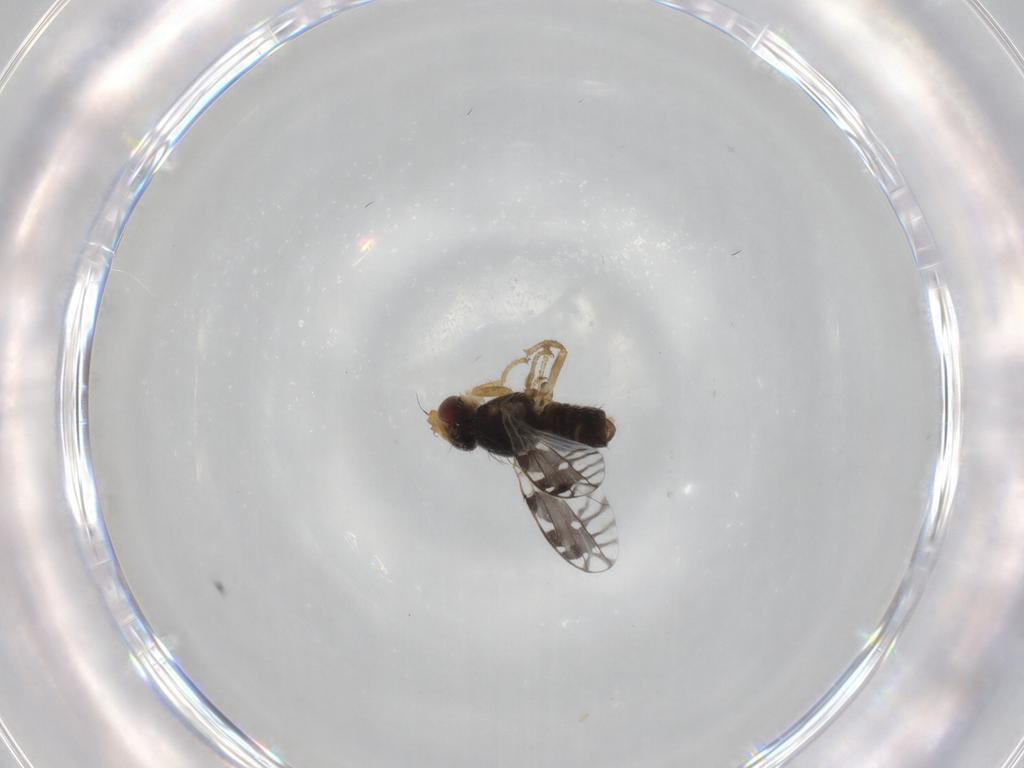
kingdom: Animalia
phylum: Arthropoda
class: Insecta
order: Diptera
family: Tephritidae
